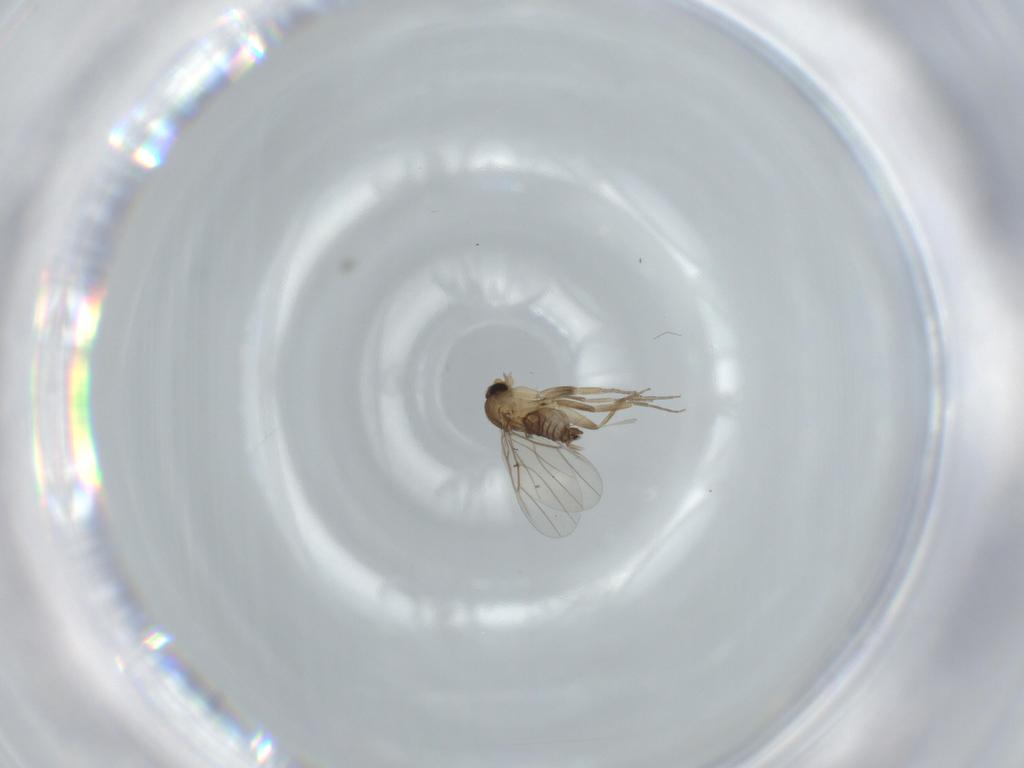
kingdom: Animalia
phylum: Arthropoda
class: Insecta
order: Diptera
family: Phoridae
